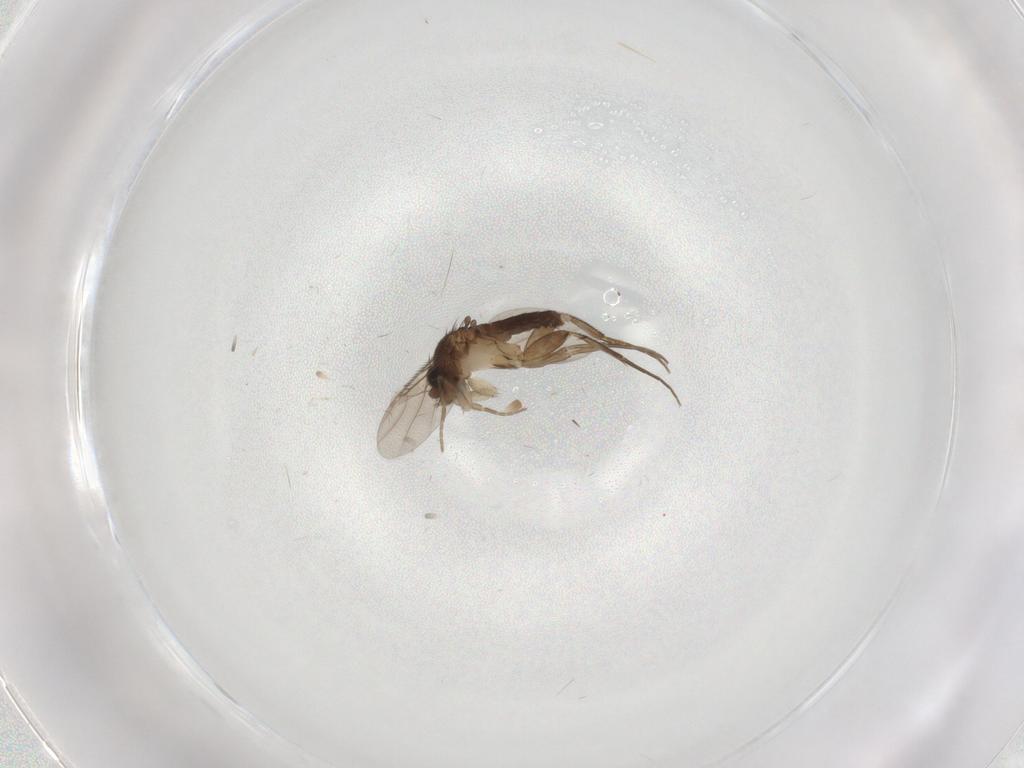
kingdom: Animalia
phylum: Arthropoda
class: Insecta
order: Diptera
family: Phoridae
